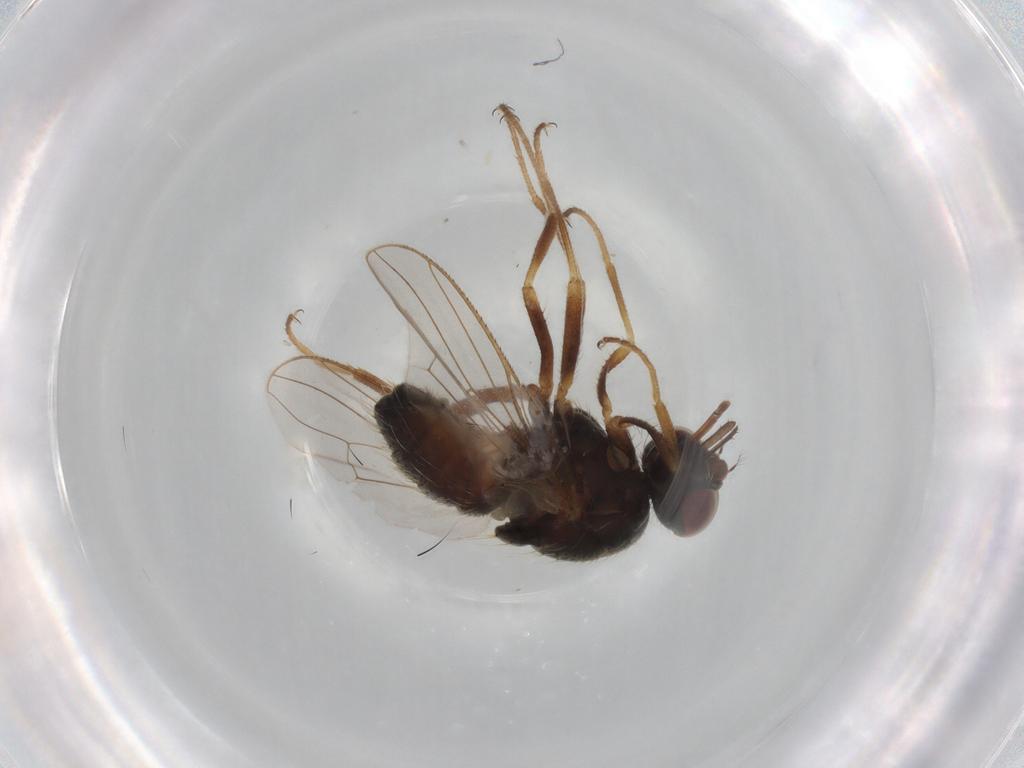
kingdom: Animalia
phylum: Arthropoda
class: Insecta
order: Diptera
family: Muscidae
